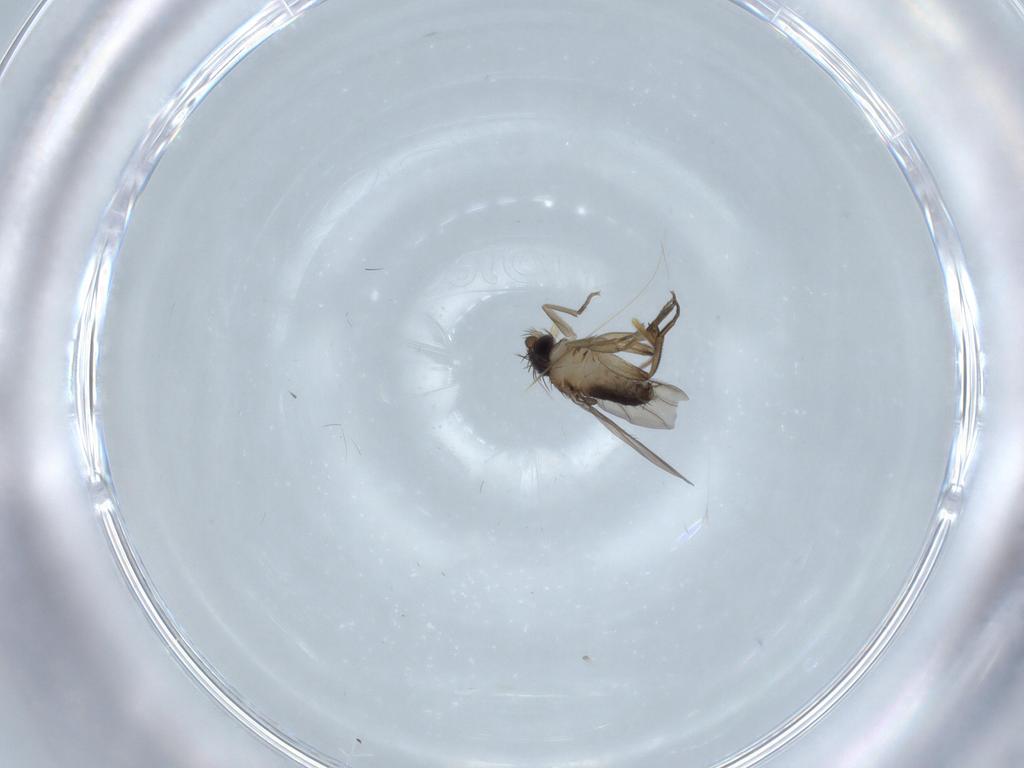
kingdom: Animalia
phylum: Arthropoda
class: Insecta
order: Diptera
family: Phoridae
